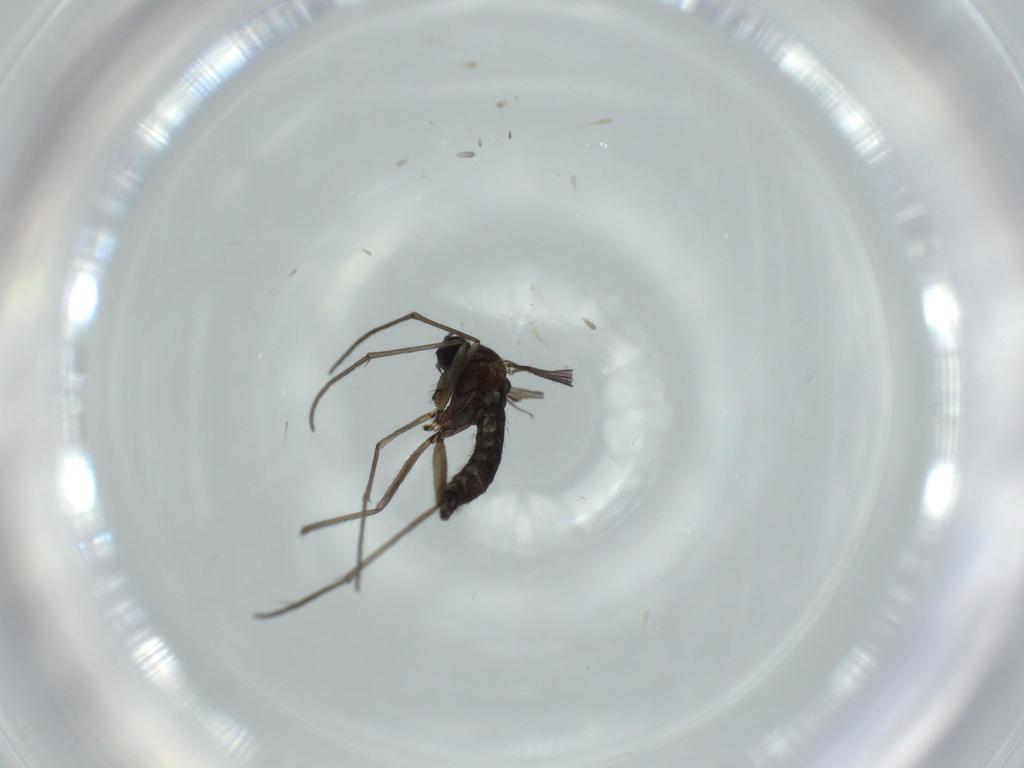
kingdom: Animalia
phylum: Arthropoda
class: Insecta
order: Diptera
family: Sciaridae
